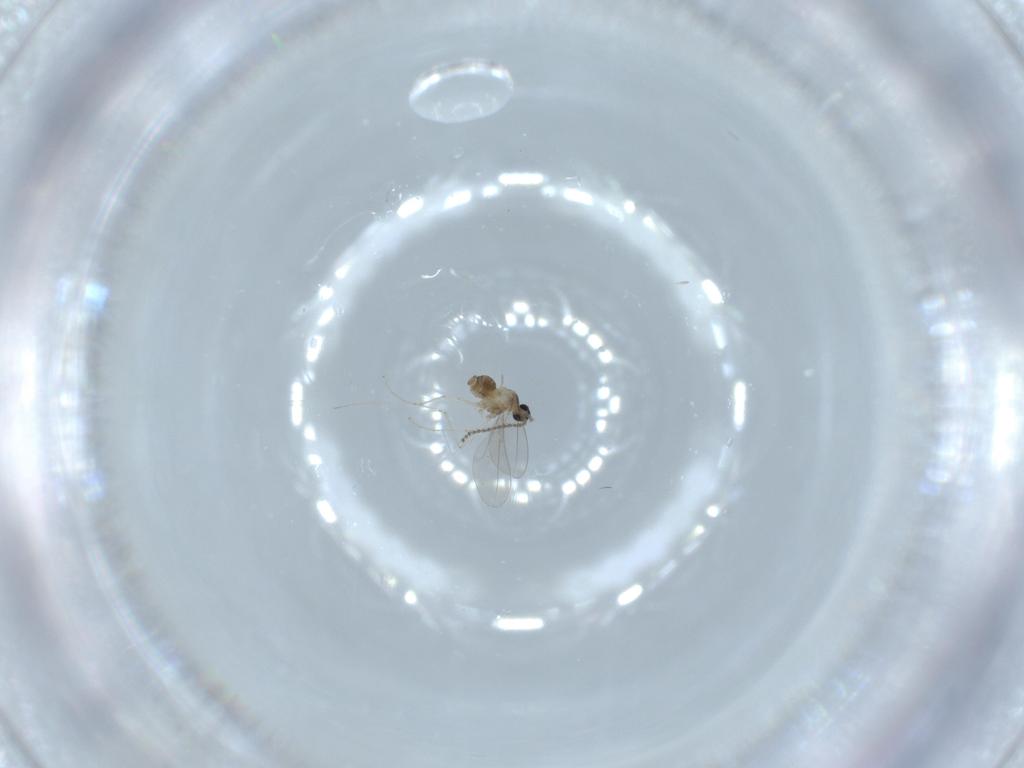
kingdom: Animalia
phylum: Arthropoda
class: Insecta
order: Diptera
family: Cecidomyiidae
